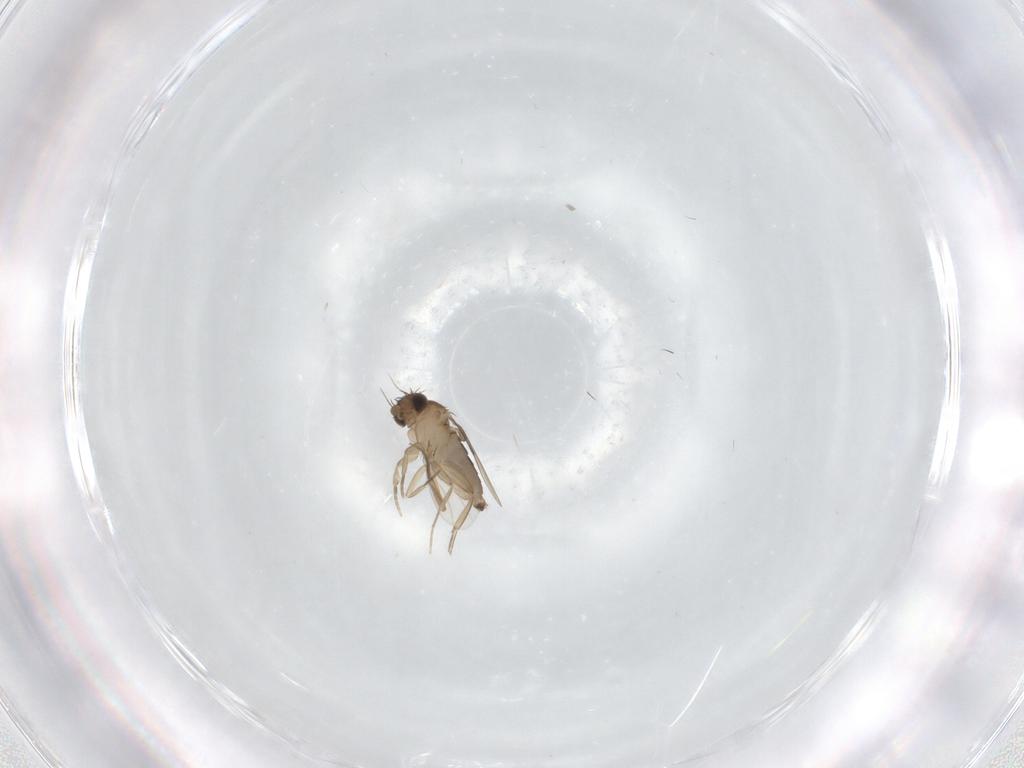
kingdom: Animalia
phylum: Arthropoda
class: Insecta
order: Diptera
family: Phoridae
